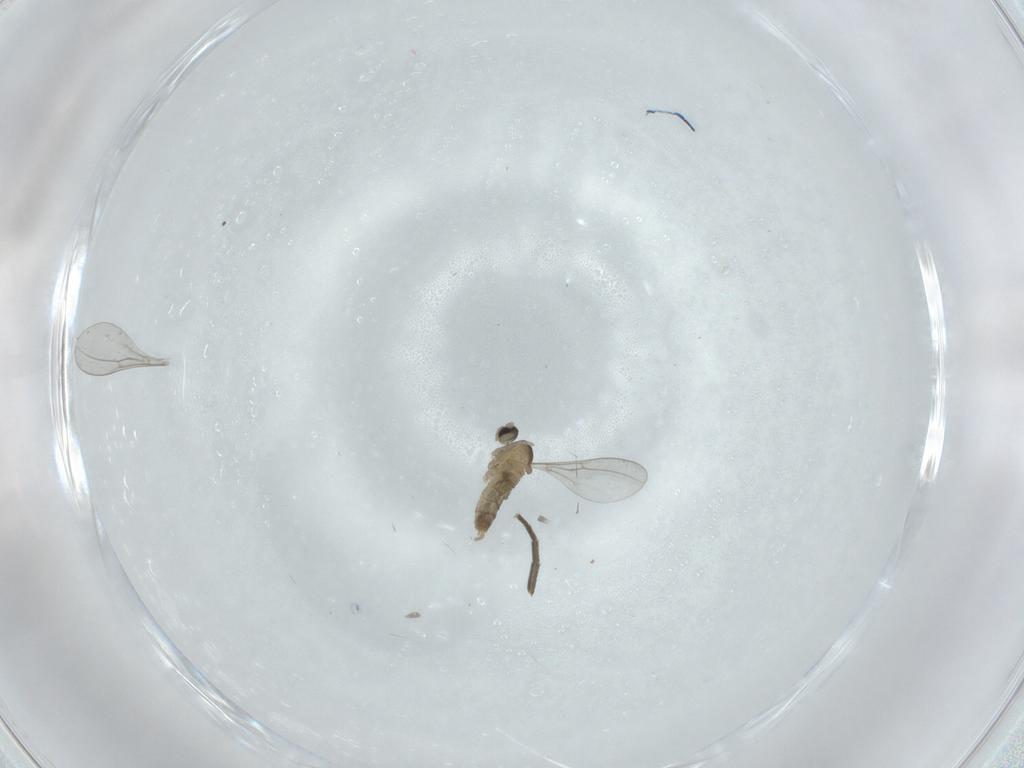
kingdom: Animalia
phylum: Arthropoda
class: Insecta
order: Diptera
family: Cecidomyiidae
